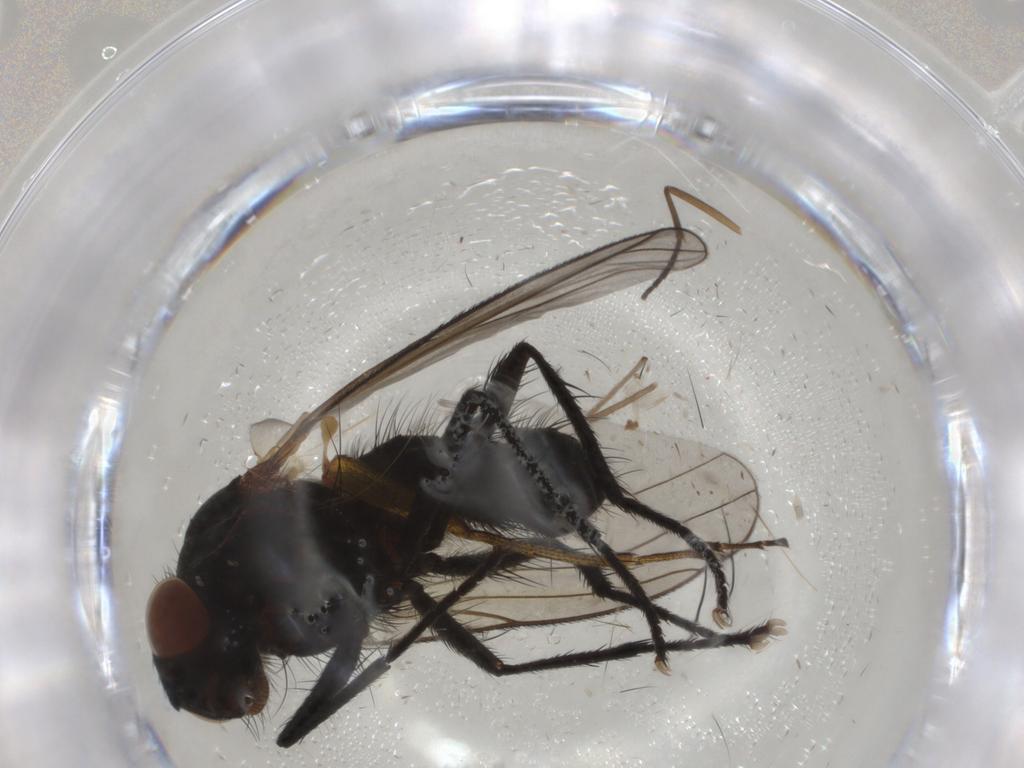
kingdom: Animalia
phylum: Arthropoda
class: Insecta
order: Diptera
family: Anthomyiidae
